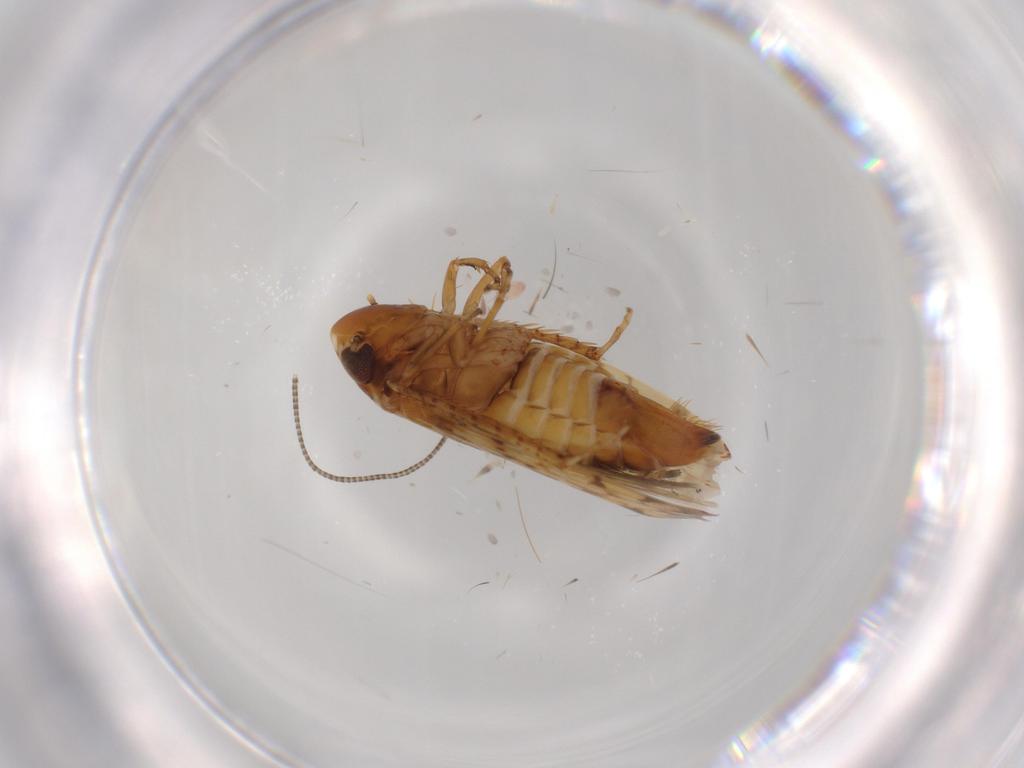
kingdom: Animalia
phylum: Arthropoda
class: Insecta
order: Hemiptera
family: Cicadellidae
